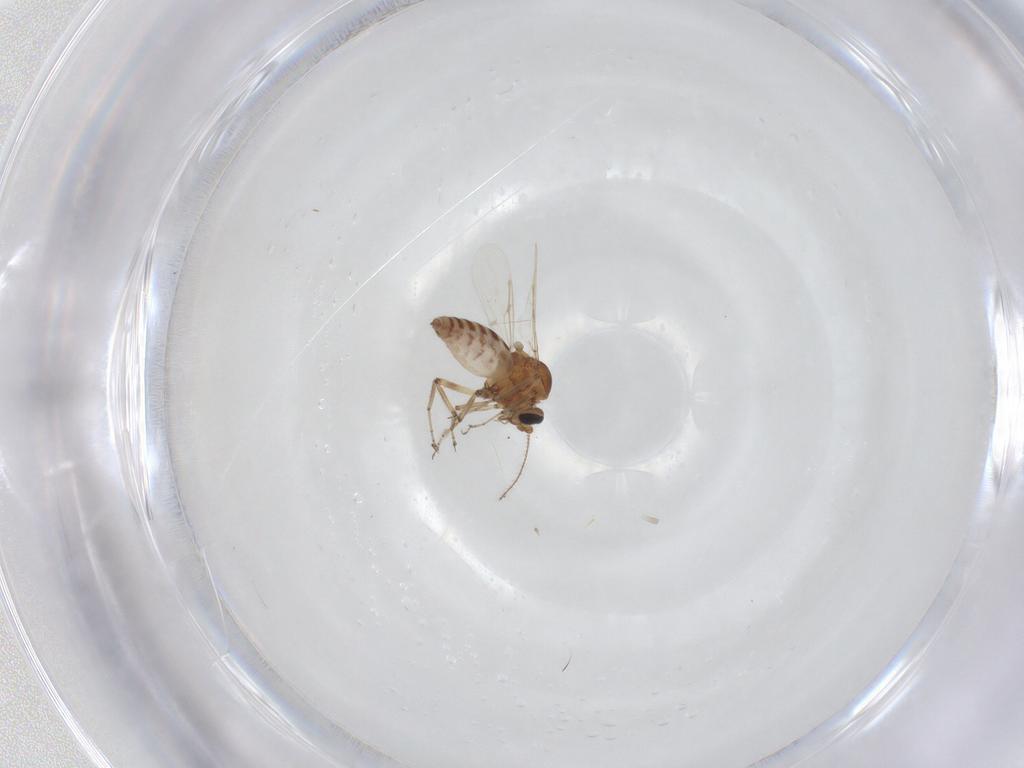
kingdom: Animalia
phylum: Arthropoda
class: Insecta
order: Diptera
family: Ceratopogonidae
